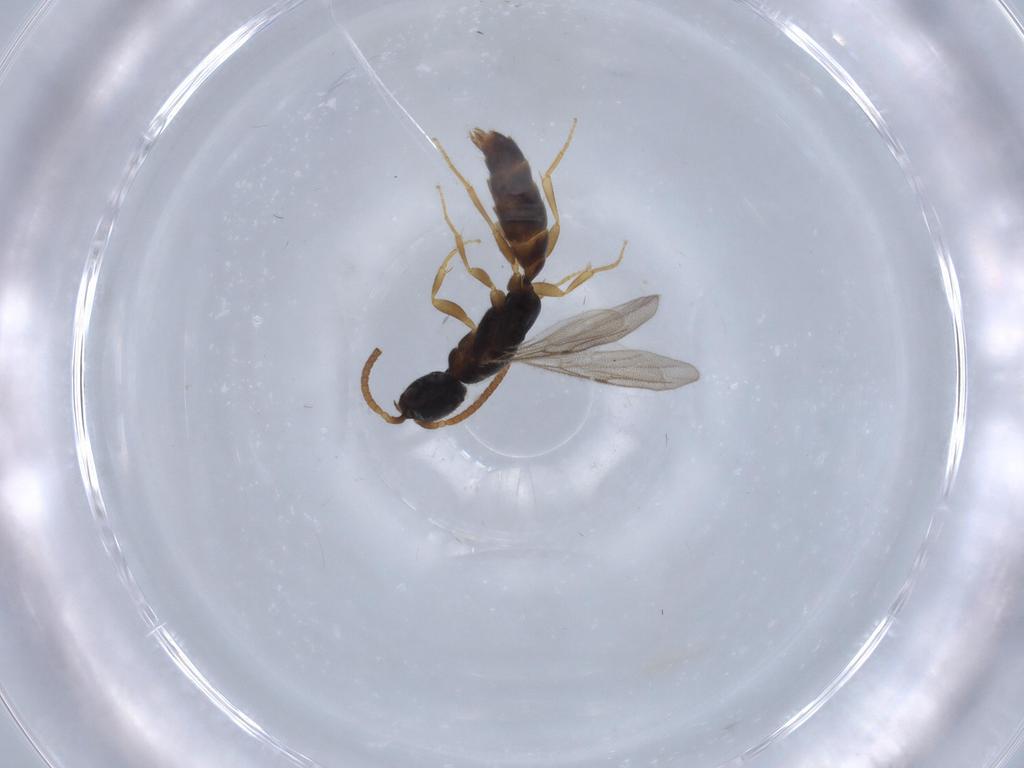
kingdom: Animalia
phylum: Arthropoda
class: Insecta
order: Hymenoptera
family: Bethylidae
